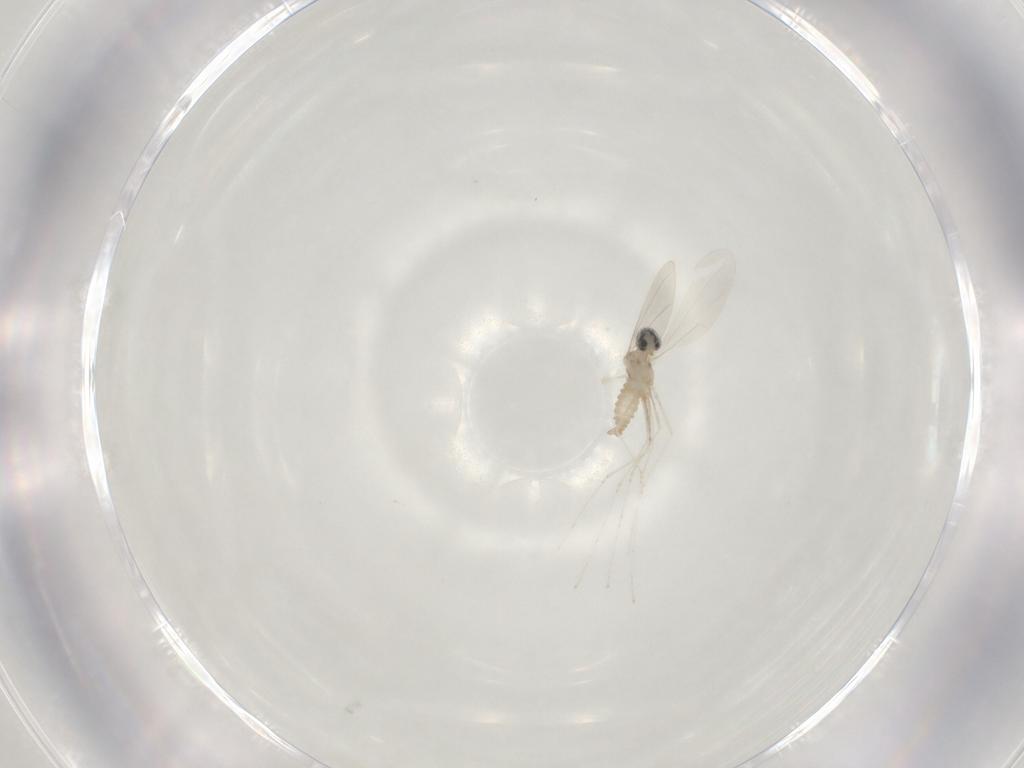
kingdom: Animalia
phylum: Arthropoda
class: Insecta
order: Diptera
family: Cecidomyiidae
